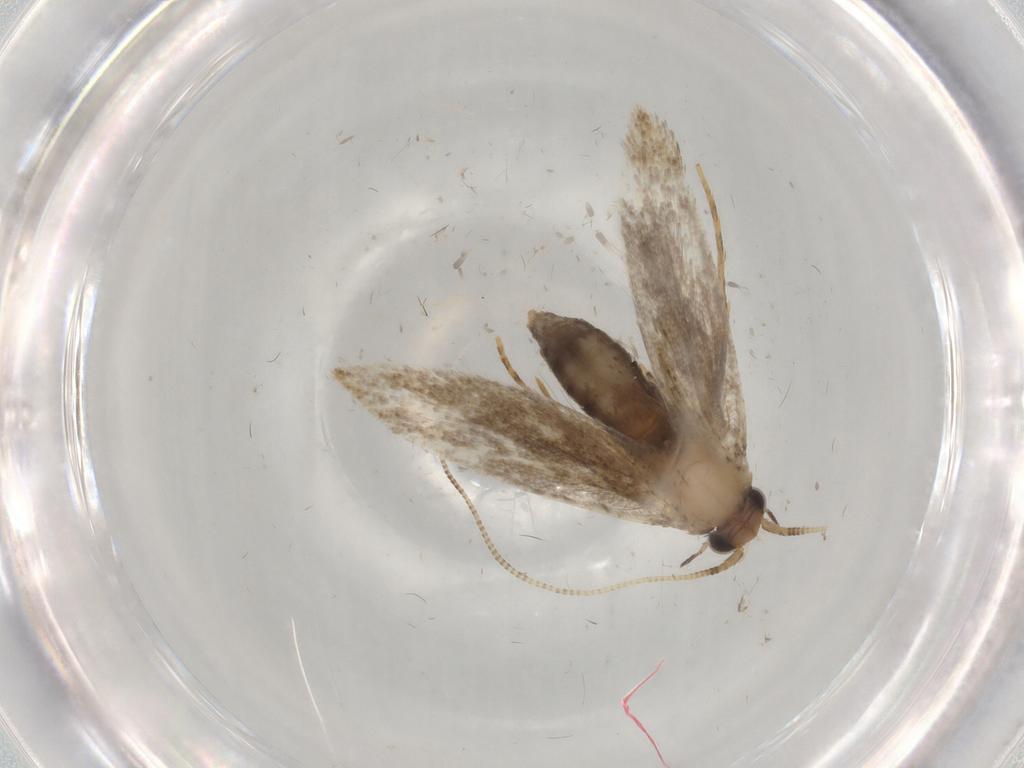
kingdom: Animalia
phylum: Arthropoda
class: Insecta
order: Lepidoptera
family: Tineidae
